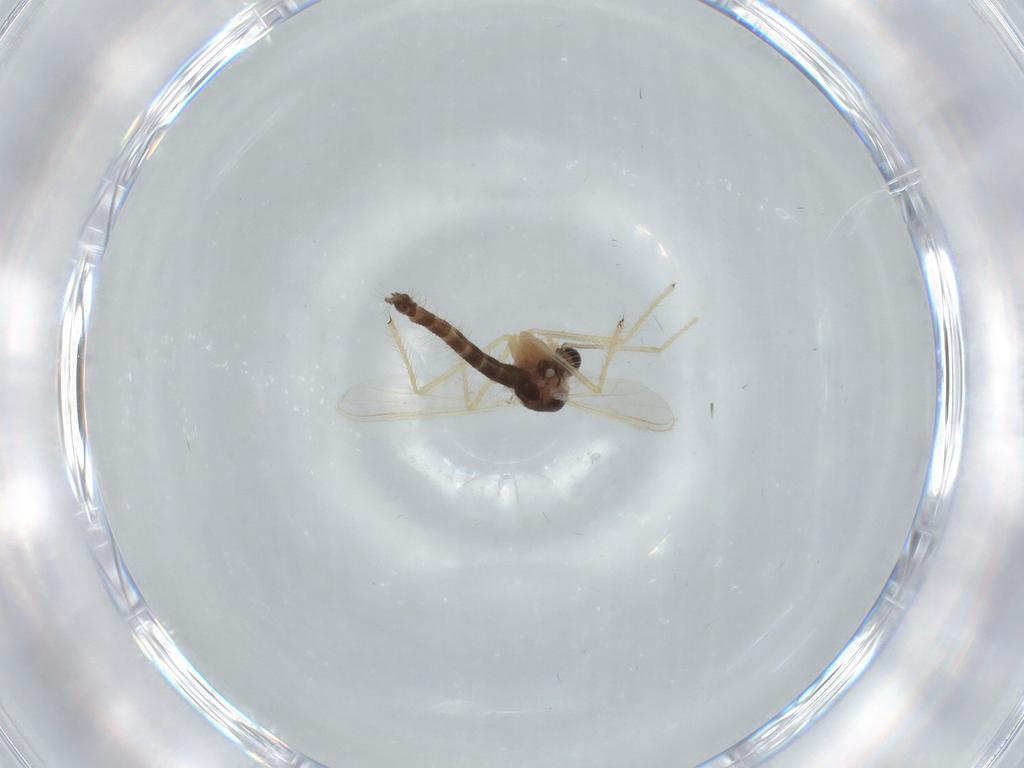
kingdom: Animalia
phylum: Arthropoda
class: Insecta
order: Diptera
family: Chironomidae
